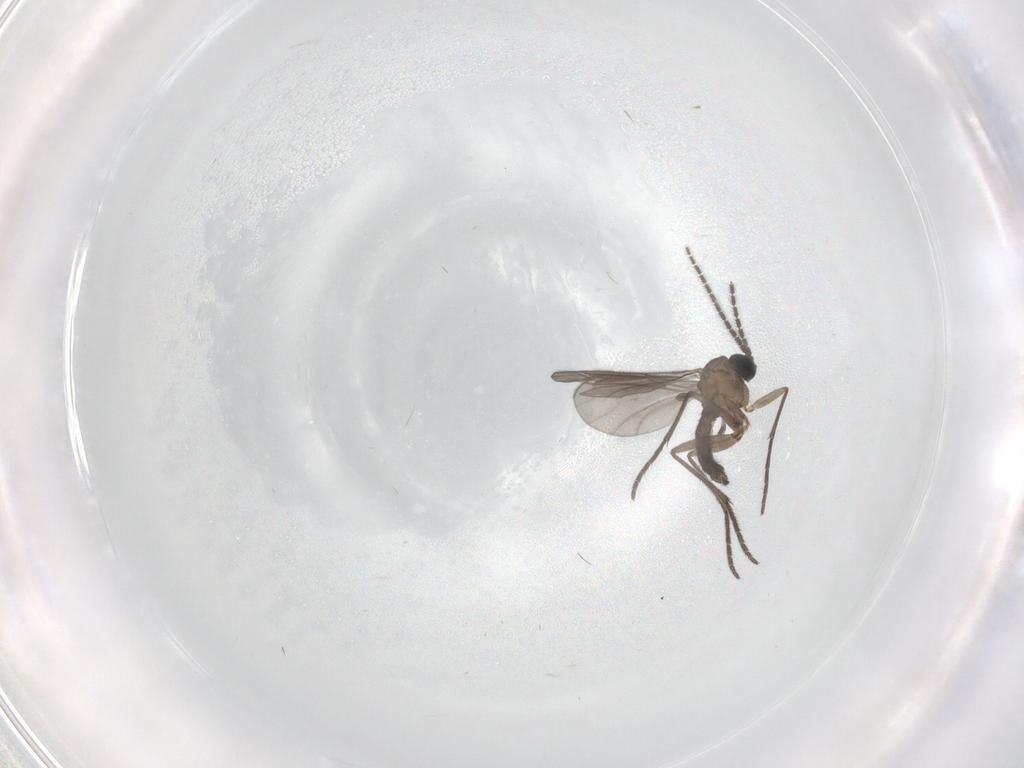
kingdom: Animalia
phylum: Arthropoda
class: Insecta
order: Diptera
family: Sciaridae
